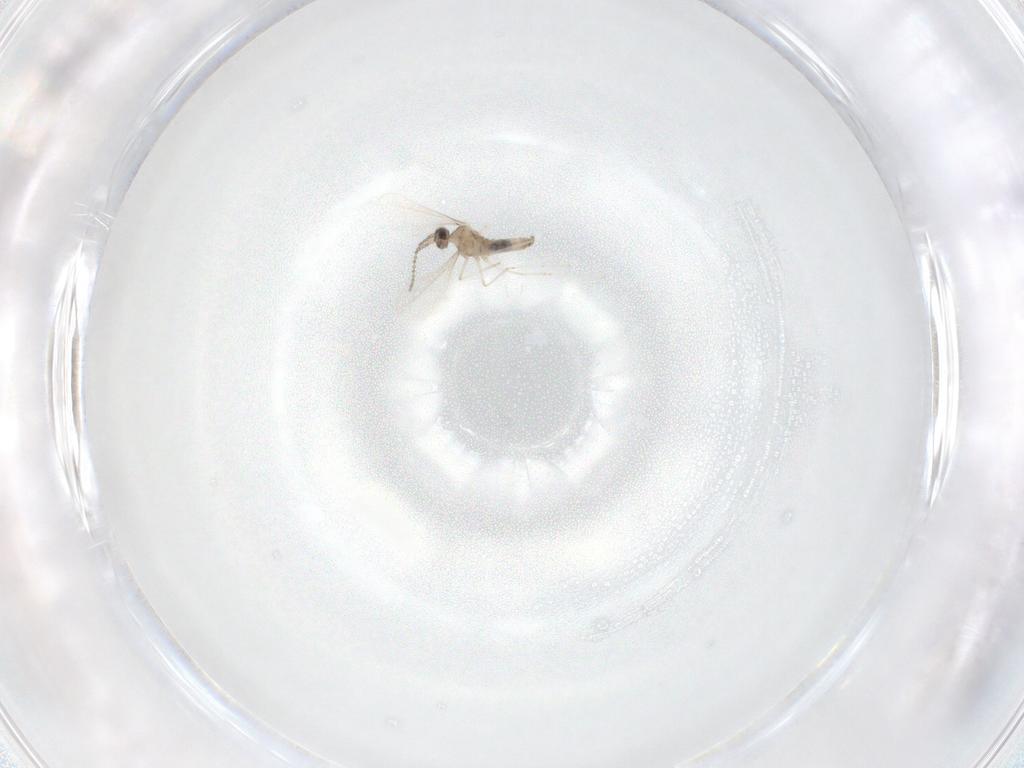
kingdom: Animalia
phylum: Arthropoda
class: Insecta
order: Diptera
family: Cecidomyiidae
